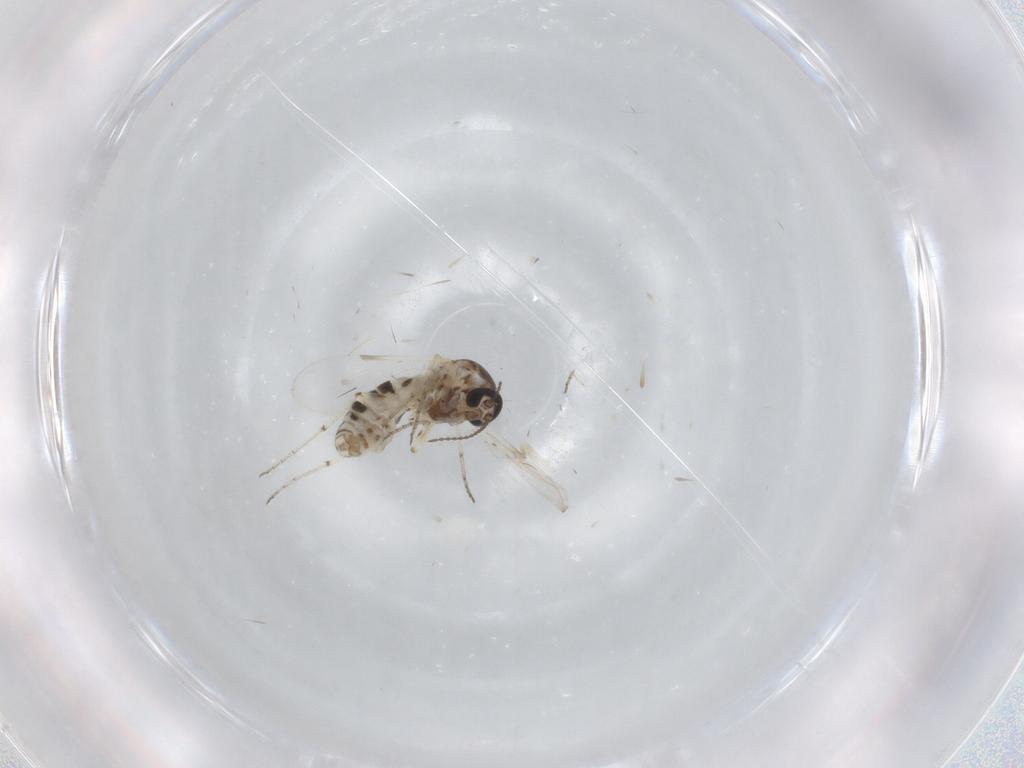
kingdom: Animalia
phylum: Arthropoda
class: Insecta
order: Diptera
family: Ceratopogonidae
